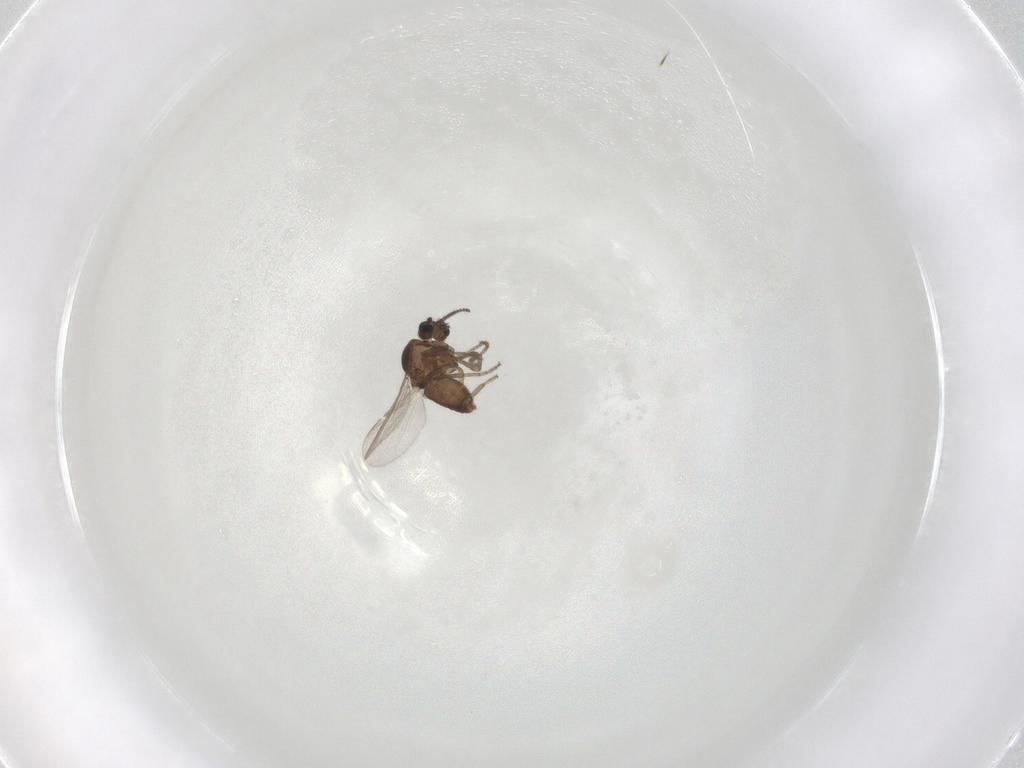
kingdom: Animalia
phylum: Arthropoda
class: Insecta
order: Diptera
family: Ceratopogonidae
